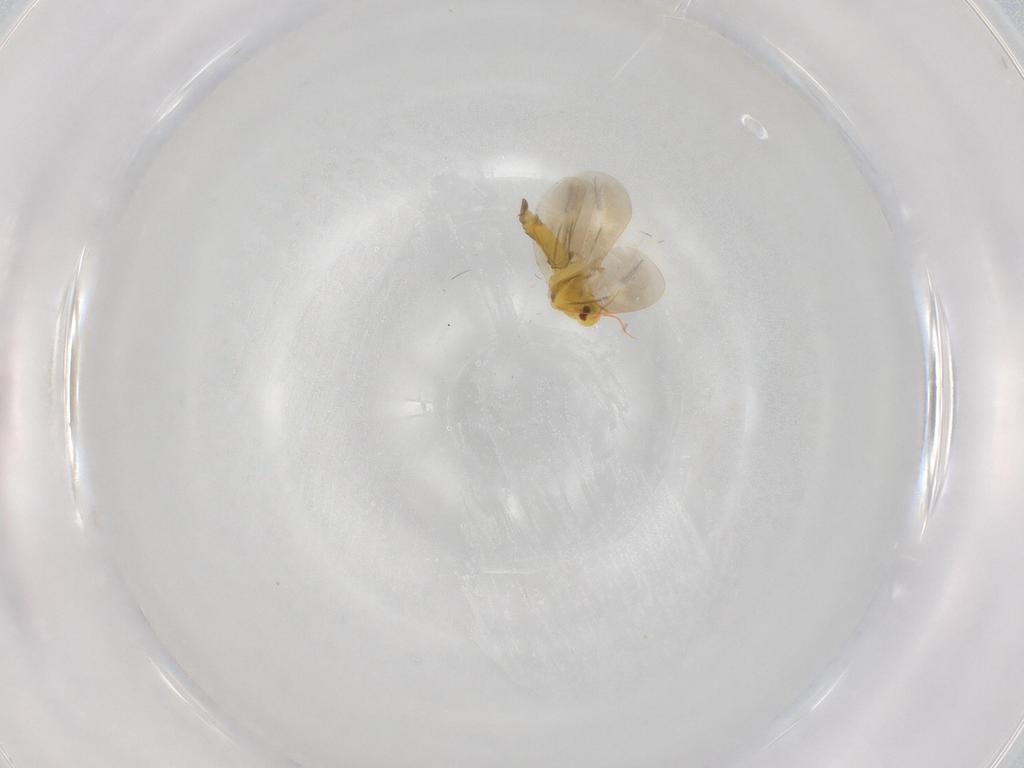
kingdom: Animalia
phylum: Arthropoda
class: Insecta
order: Hemiptera
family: Aleyrodidae
